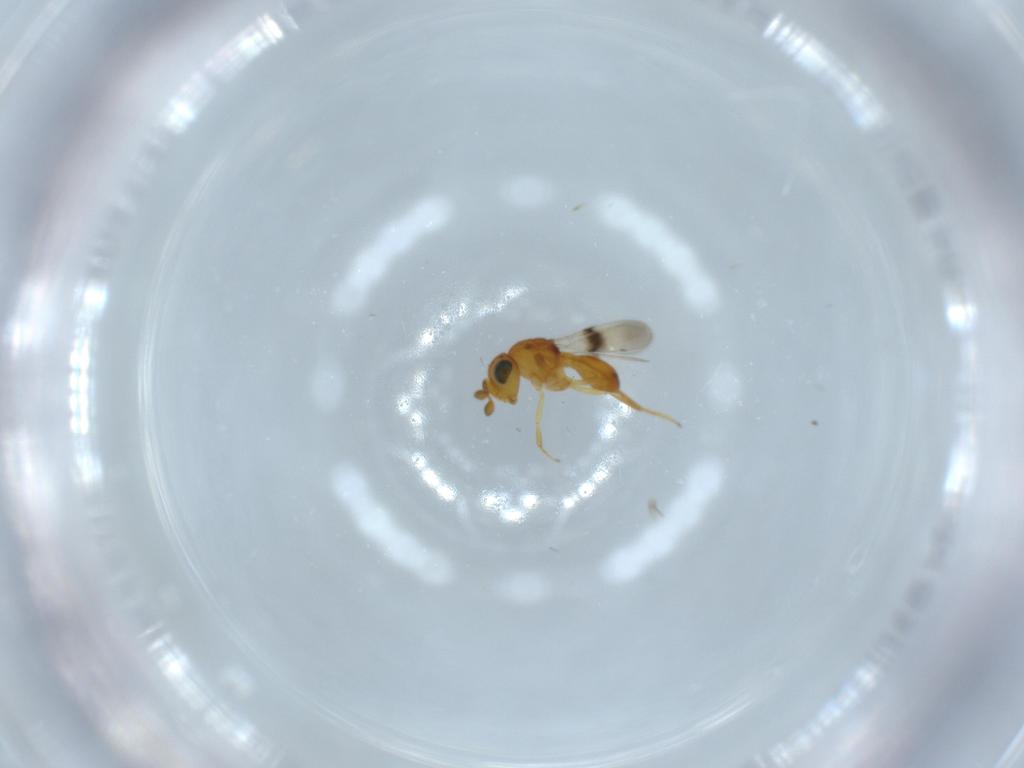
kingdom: Animalia
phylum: Arthropoda
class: Insecta
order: Hymenoptera
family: Scelionidae
